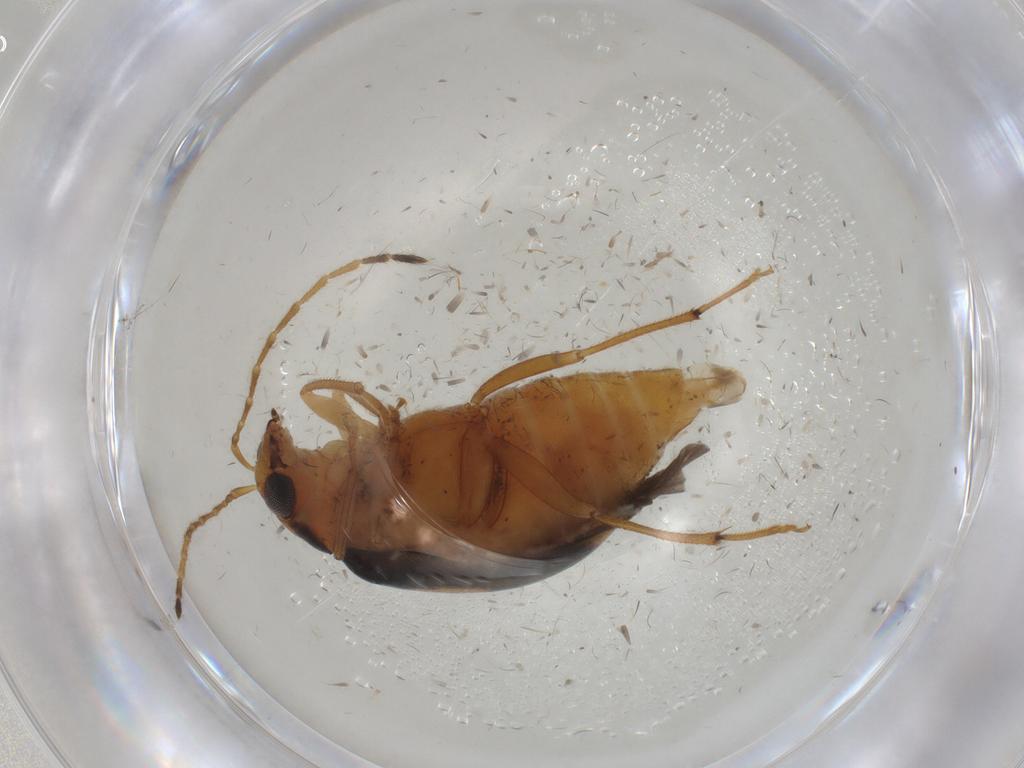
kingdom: Animalia
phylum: Arthropoda
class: Insecta
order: Coleoptera
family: Chrysomelidae
